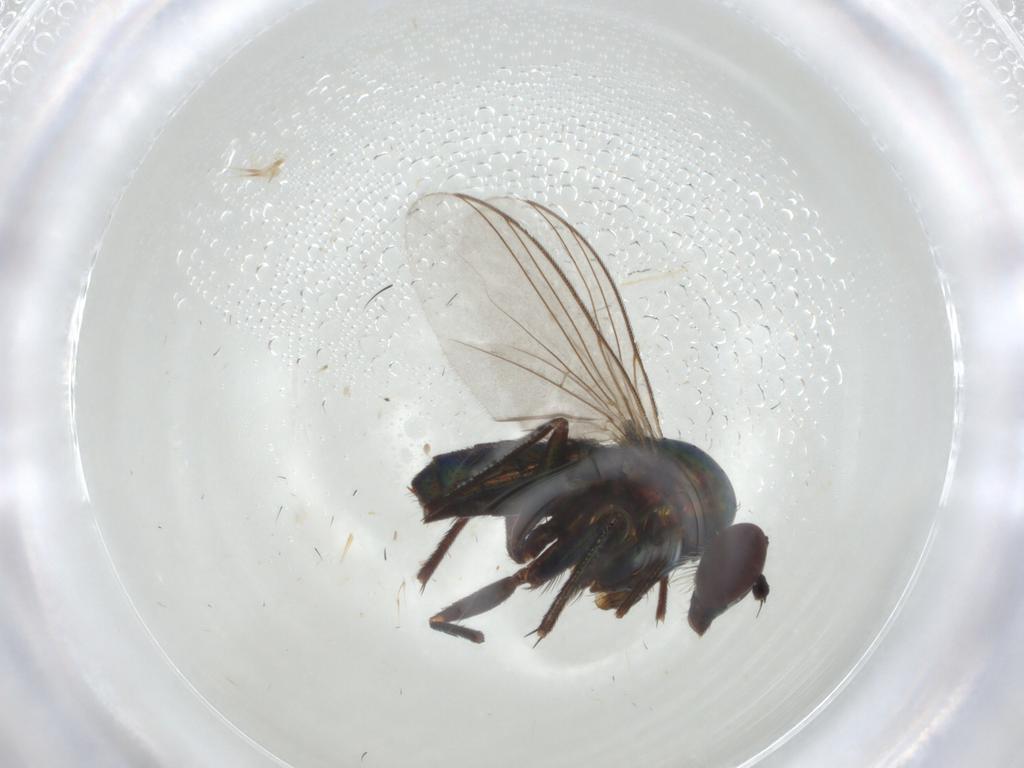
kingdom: Animalia
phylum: Arthropoda
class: Insecta
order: Diptera
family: Dolichopodidae
